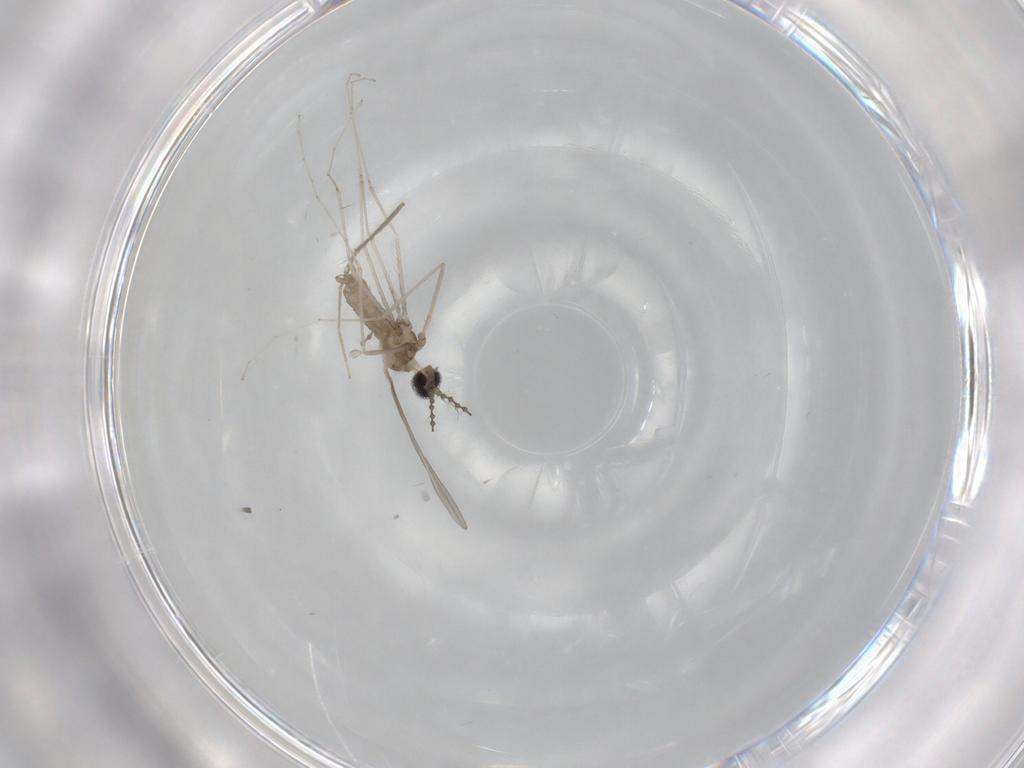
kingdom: Animalia
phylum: Arthropoda
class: Insecta
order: Diptera
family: Cecidomyiidae
